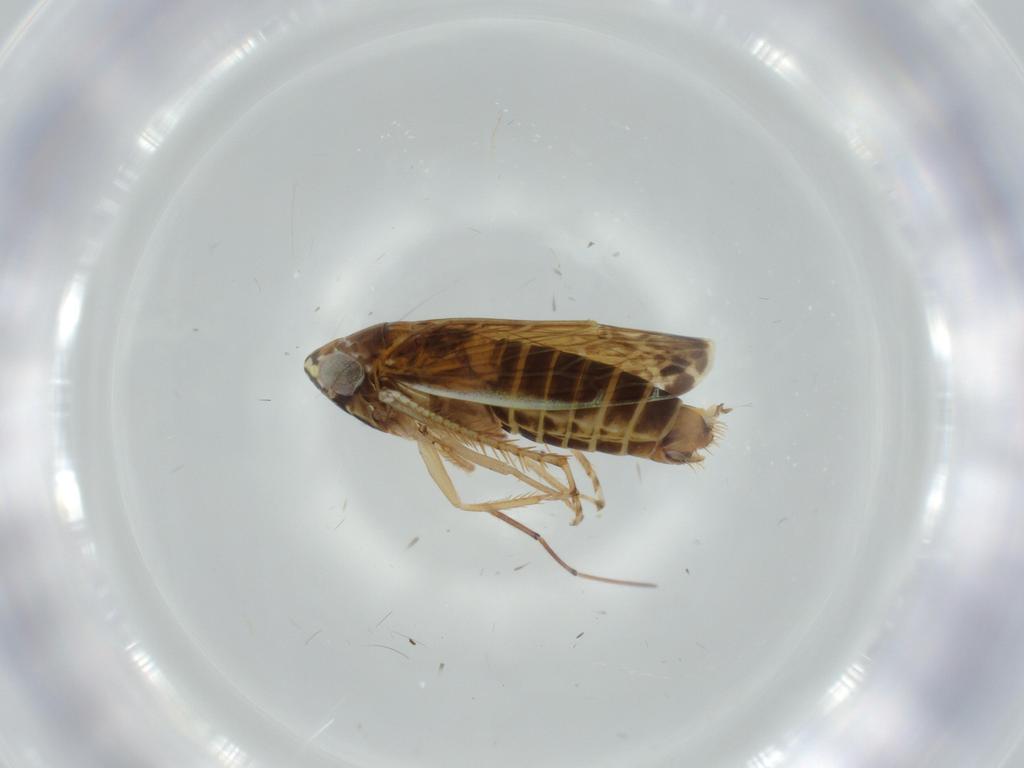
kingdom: Animalia
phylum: Arthropoda
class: Insecta
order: Hemiptera
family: Cicadellidae
